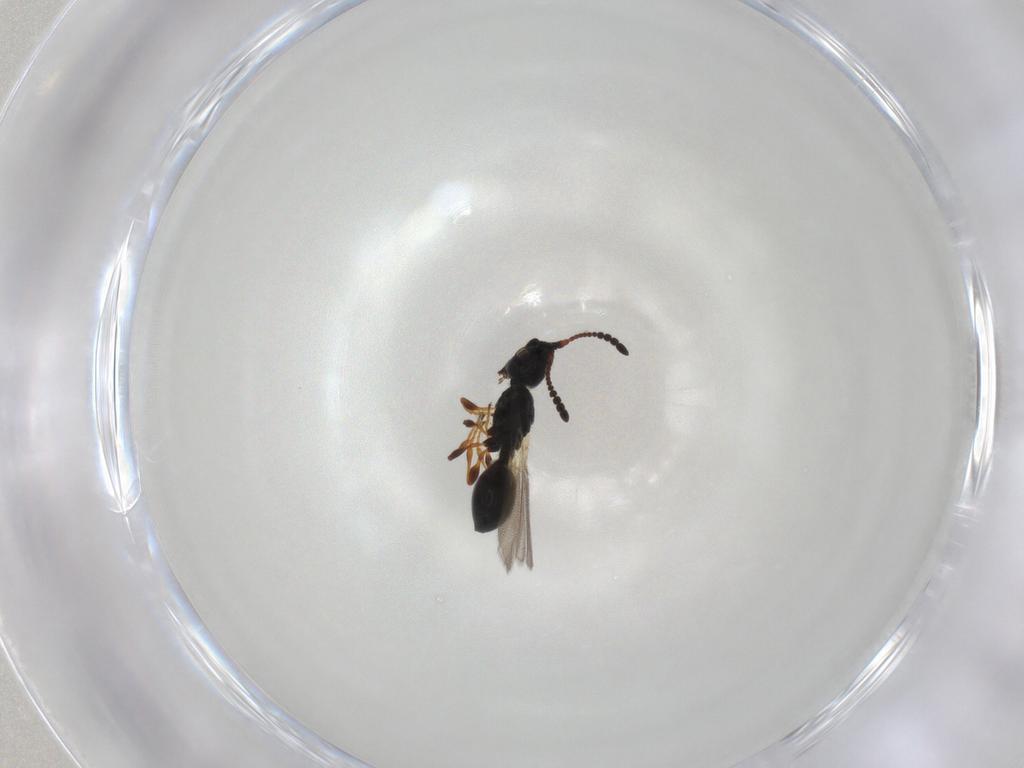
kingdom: Animalia
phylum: Arthropoda
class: Insecta
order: Hymenoptera
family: Diapriidae
